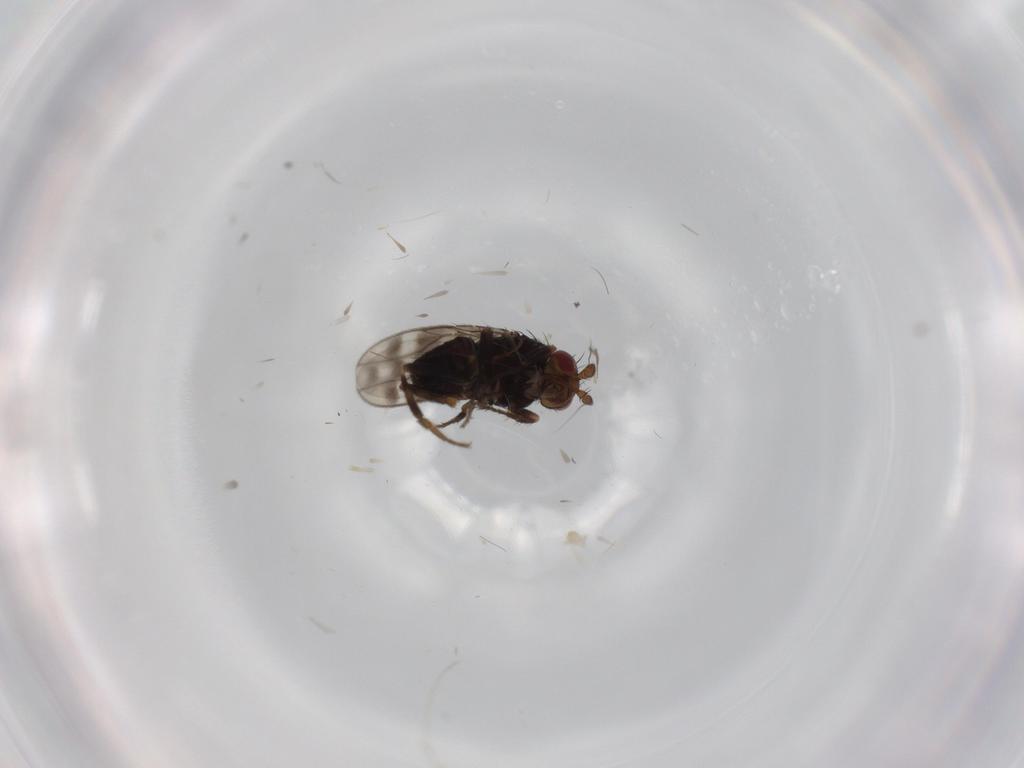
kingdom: Animalia
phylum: Arthropoda
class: Insecta
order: Diptera
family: Sphaeroceridae
